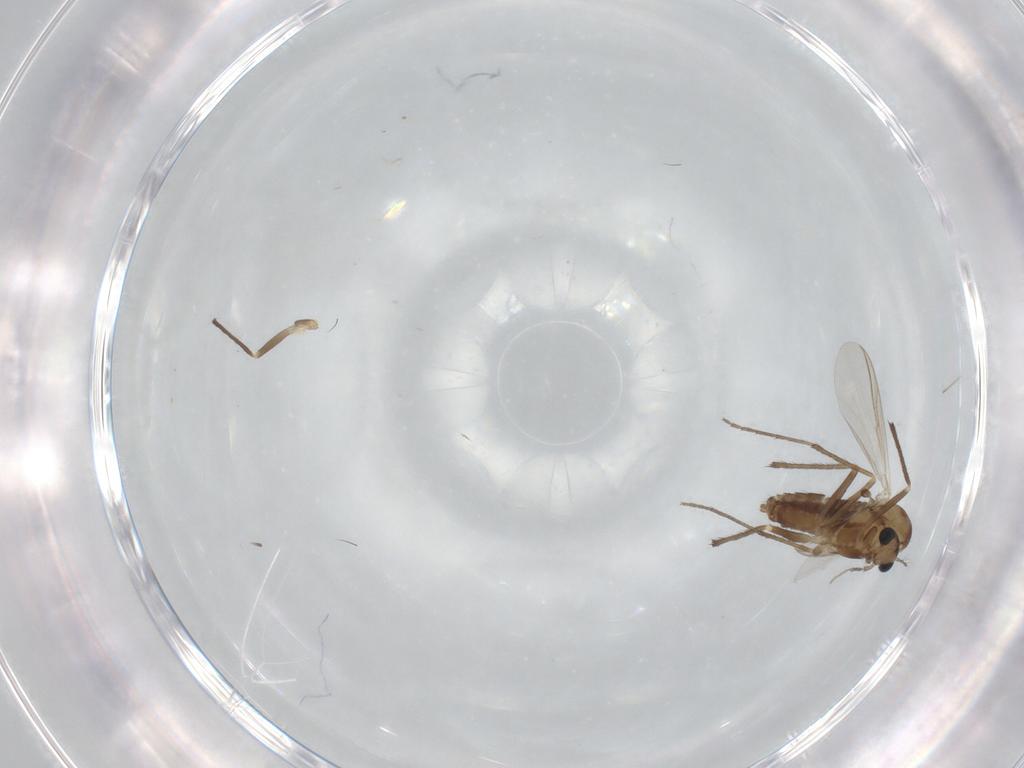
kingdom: Animalia
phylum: Arthropoda
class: Insecta
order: Diptera
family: Chironomidae
